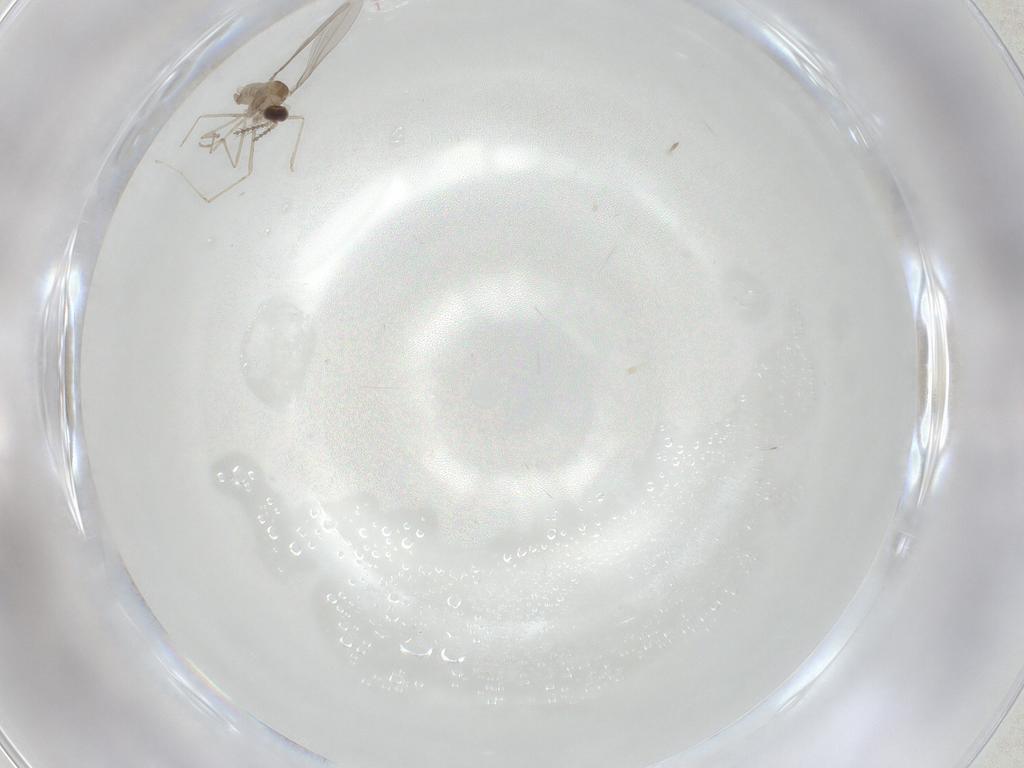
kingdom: Animalia
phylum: Arthropoda
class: Insecta
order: Diptera
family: Cecidomyiidae
